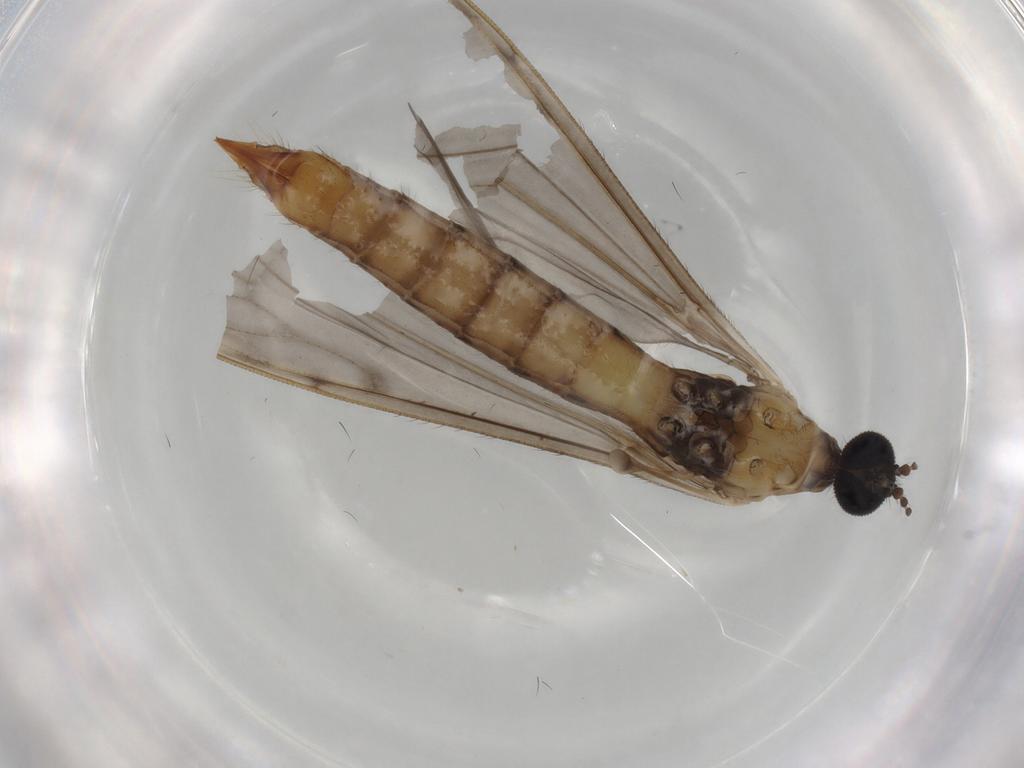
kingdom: Animalia
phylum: Arthropoda
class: Insecta
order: Diptera
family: Limoniidae
